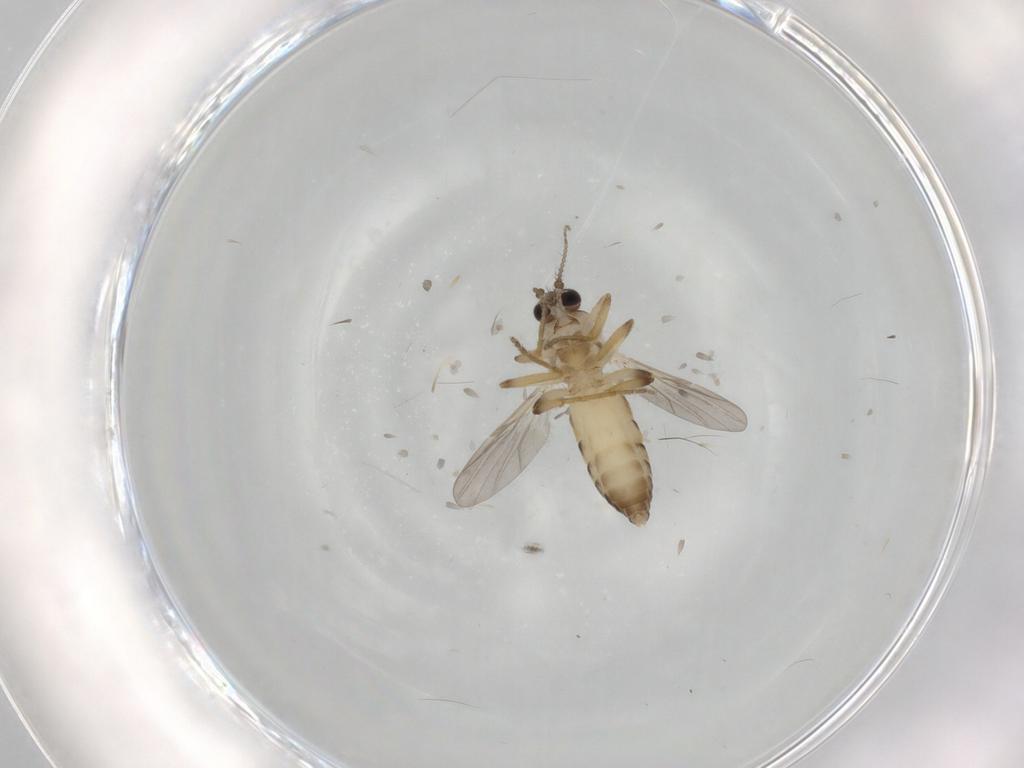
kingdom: Animalia
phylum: Arthropoda
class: Insecta
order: Diptera
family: Ceratopogonidae
